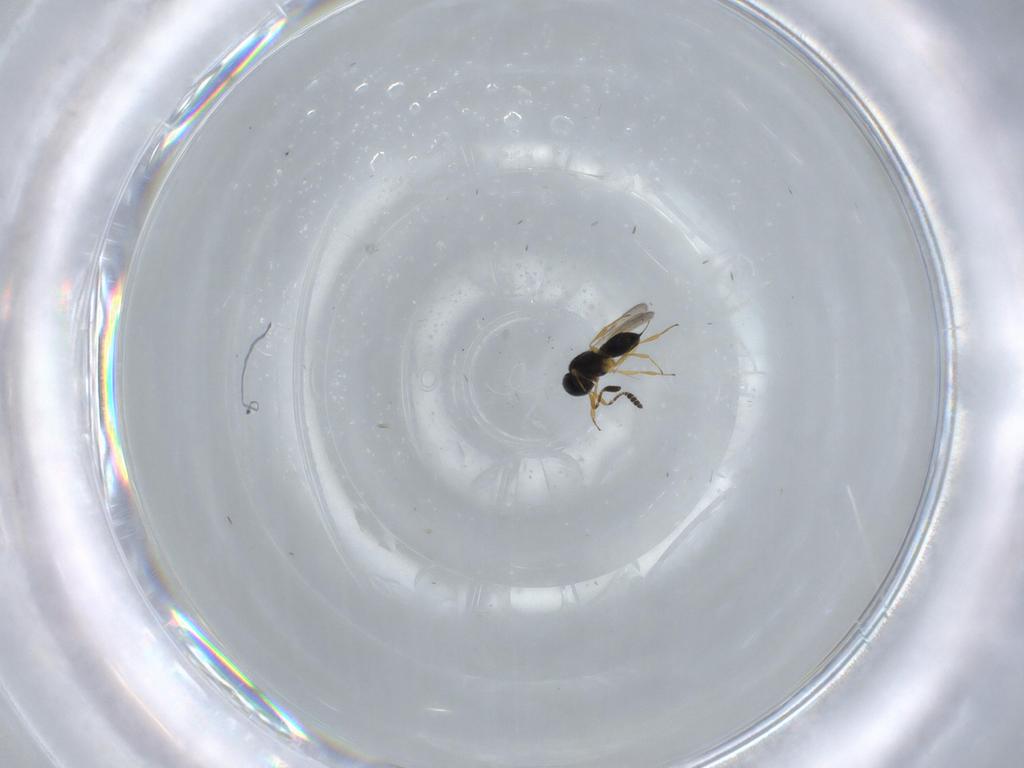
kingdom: Animalia
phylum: Arthropoda
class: Insecta
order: Hymenoptera
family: Scelionidae
